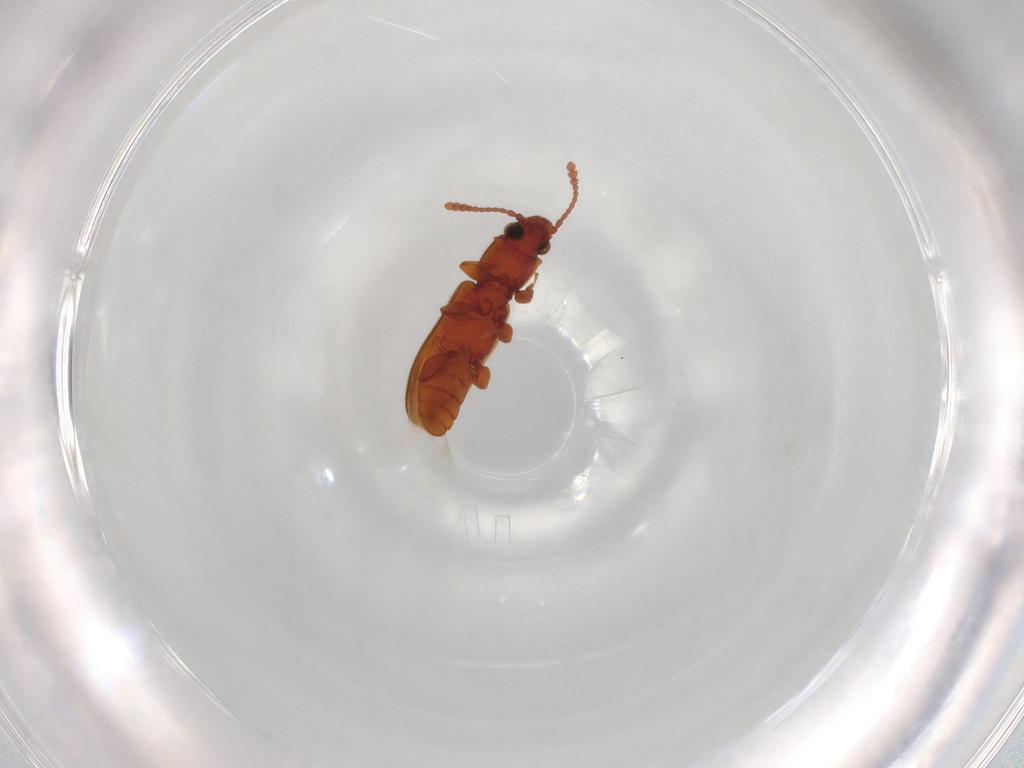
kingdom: Animalia
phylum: Arthropoda
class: Insecta
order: Coleoptera
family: Silvanidae
